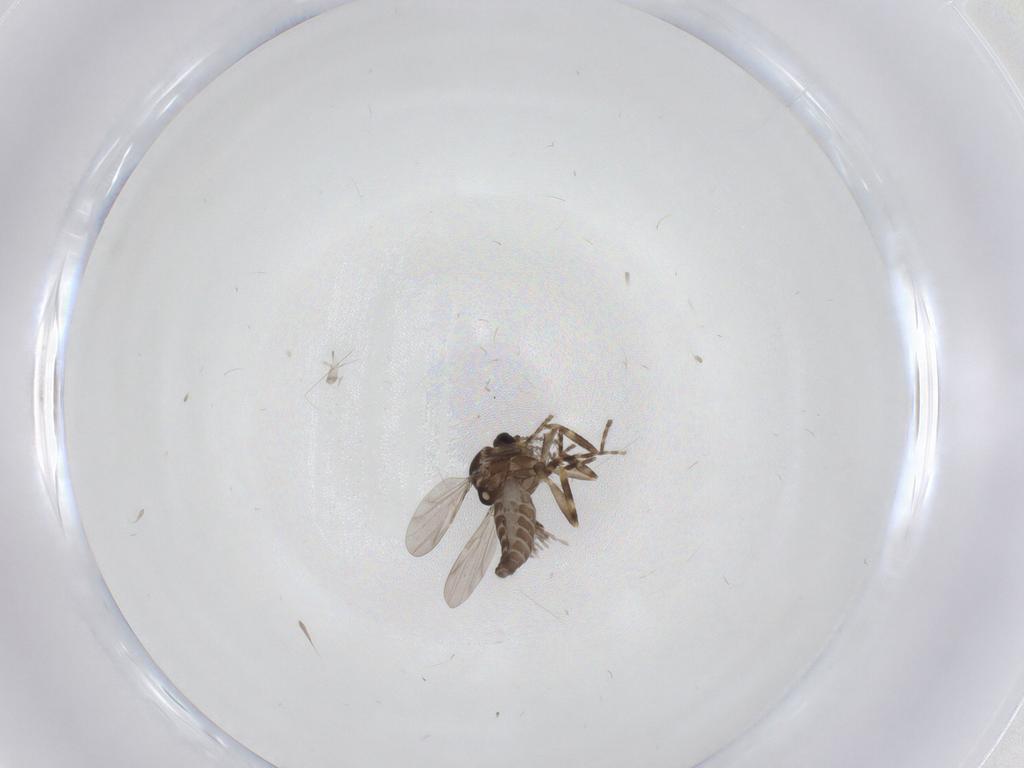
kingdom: Animalia
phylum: Arthropoda
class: Insecta
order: Diptera
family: Ceratopogonidae
